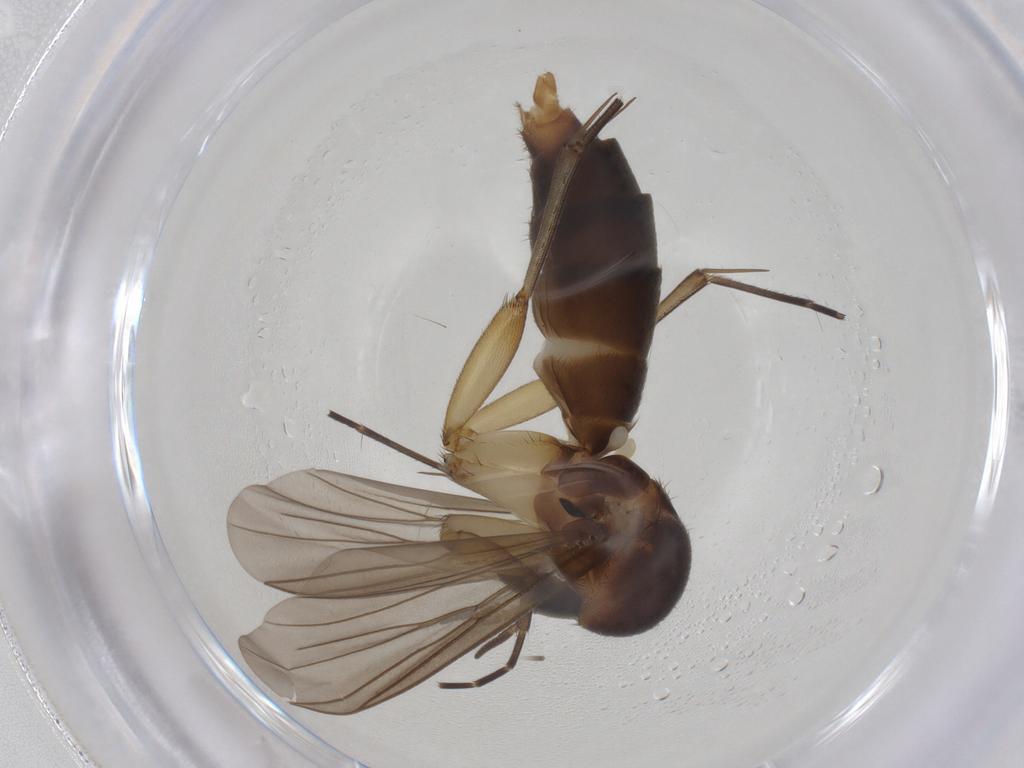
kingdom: Animalia
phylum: Arthropoda
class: Insecta
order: Diptera
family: Mycetophilidae
